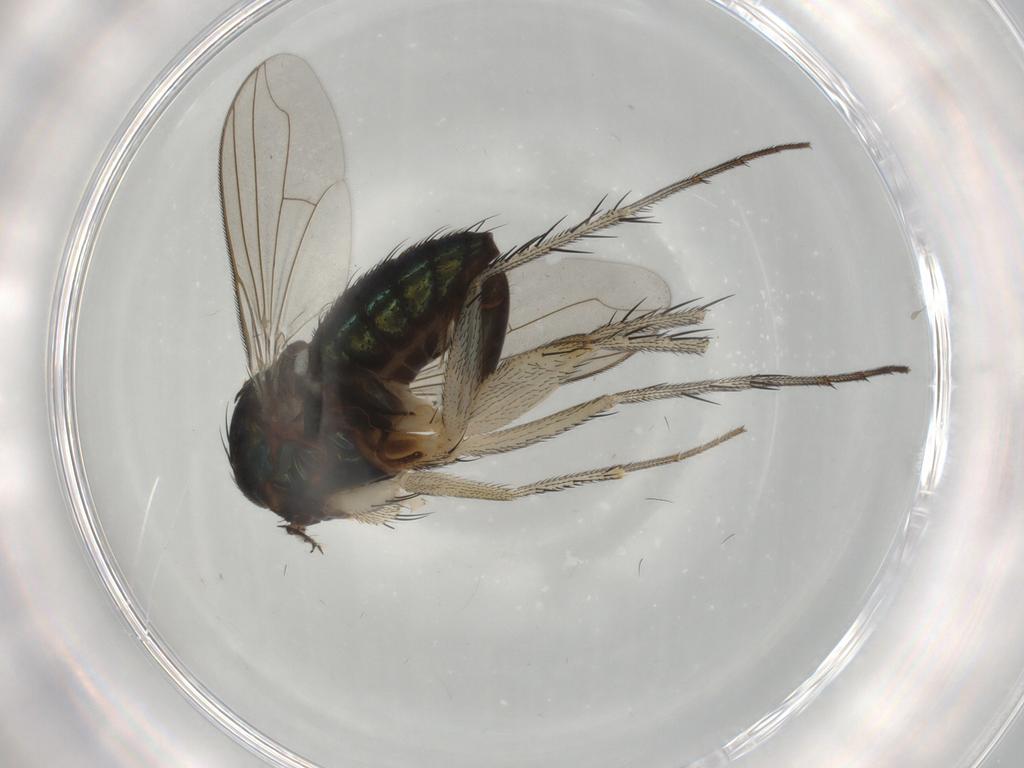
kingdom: Animalia
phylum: Arthropoda
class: Insecta
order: Diptera
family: Dolichopodidae
